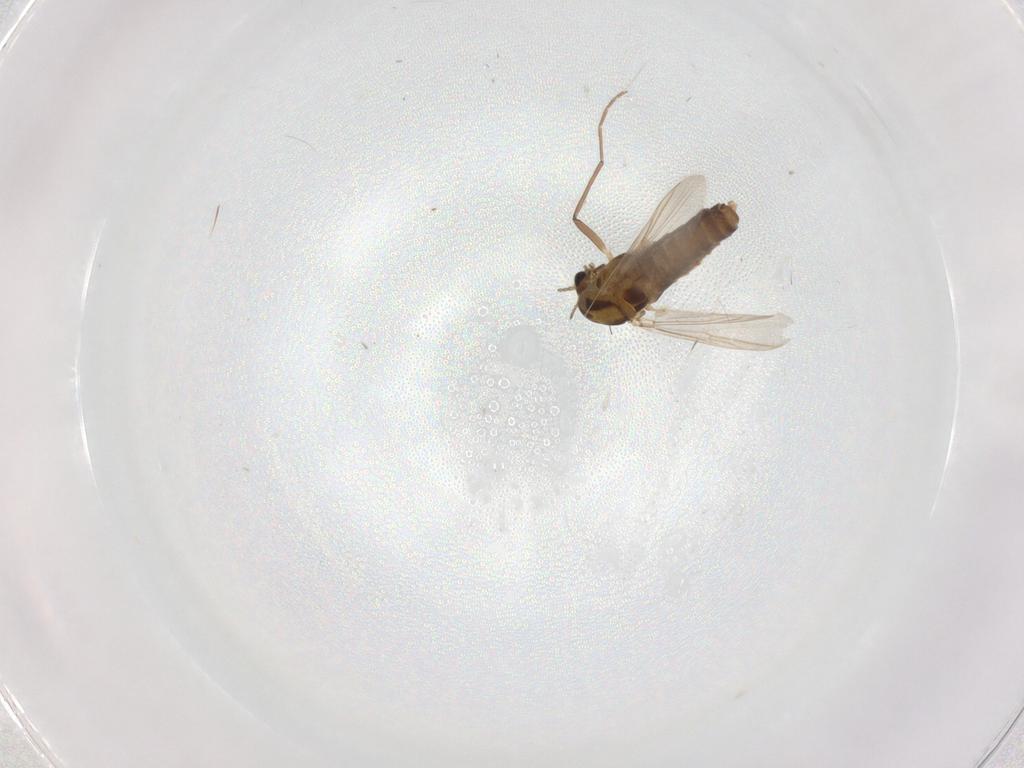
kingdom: Animalia
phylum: Arthropoda
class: Insecta
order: Diptera
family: Chironomidae
